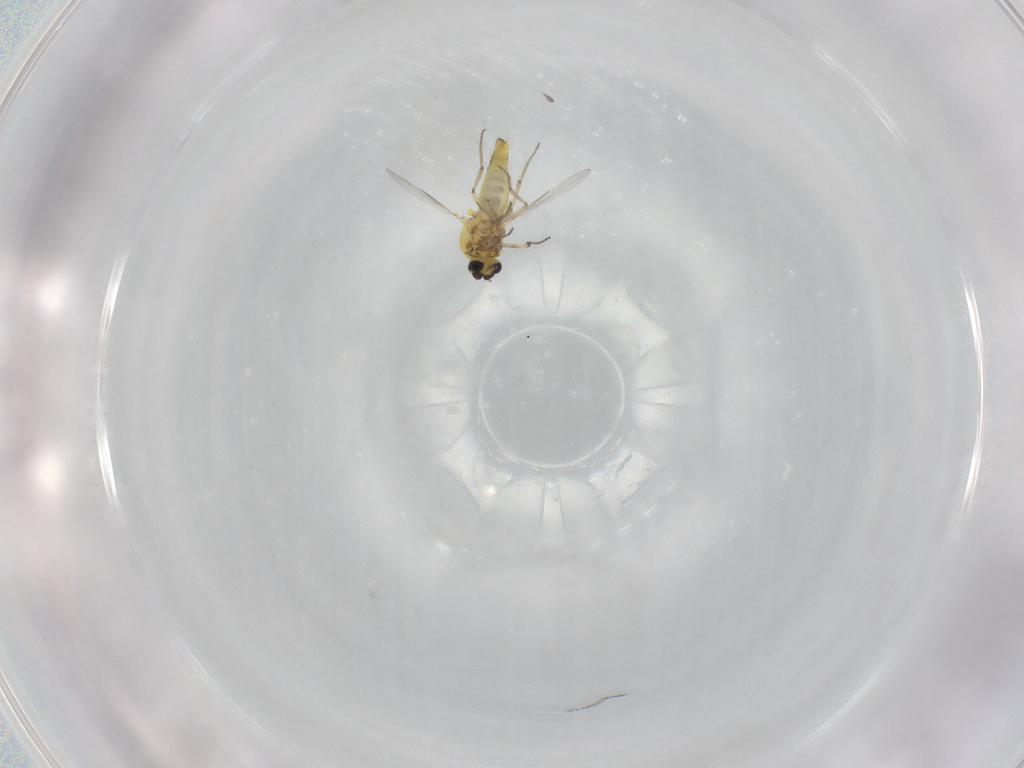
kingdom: Animalia
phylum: Arthropoda
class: Insecta
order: Diptera
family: Ceratopogonidae
